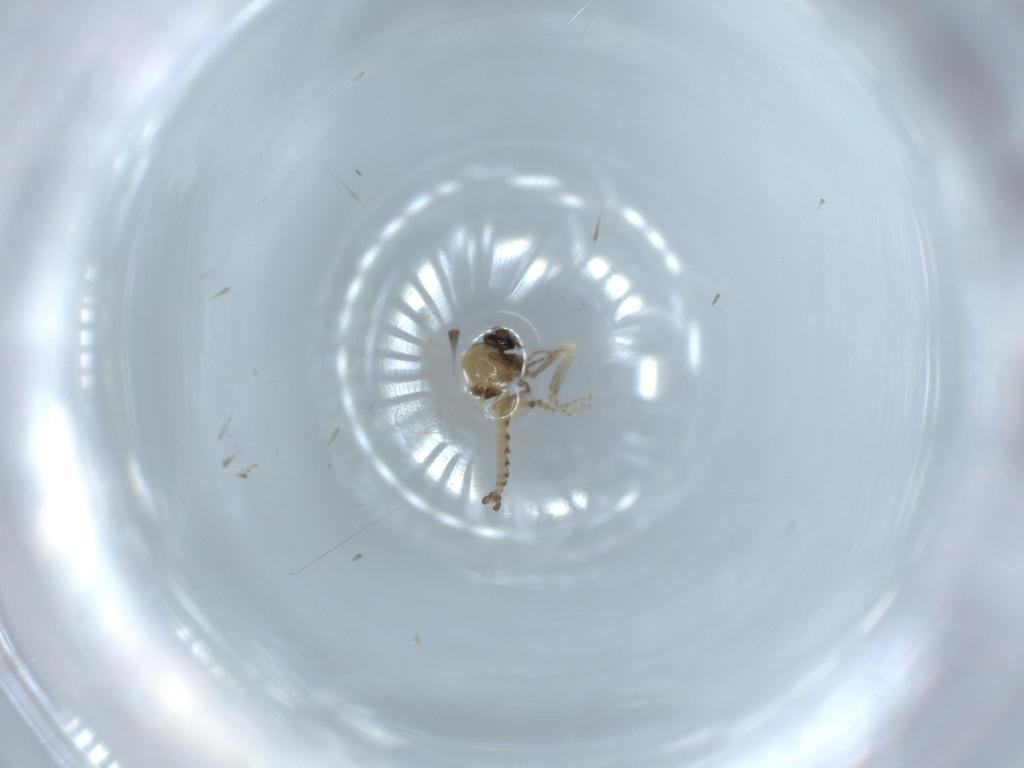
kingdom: Animalia
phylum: Arthropoda
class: Insecta
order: Diptera
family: Ceratopogonidae
